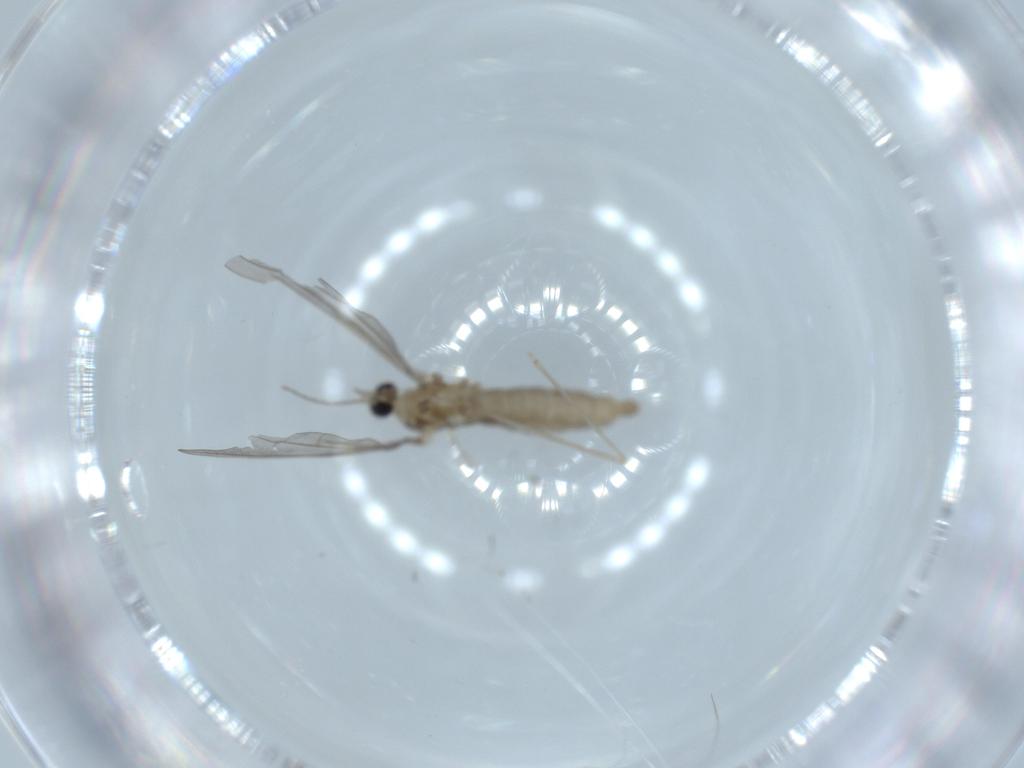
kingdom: Animalia
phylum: Arthropoda
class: Insecta
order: Diptera
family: Cecidomyiidae
